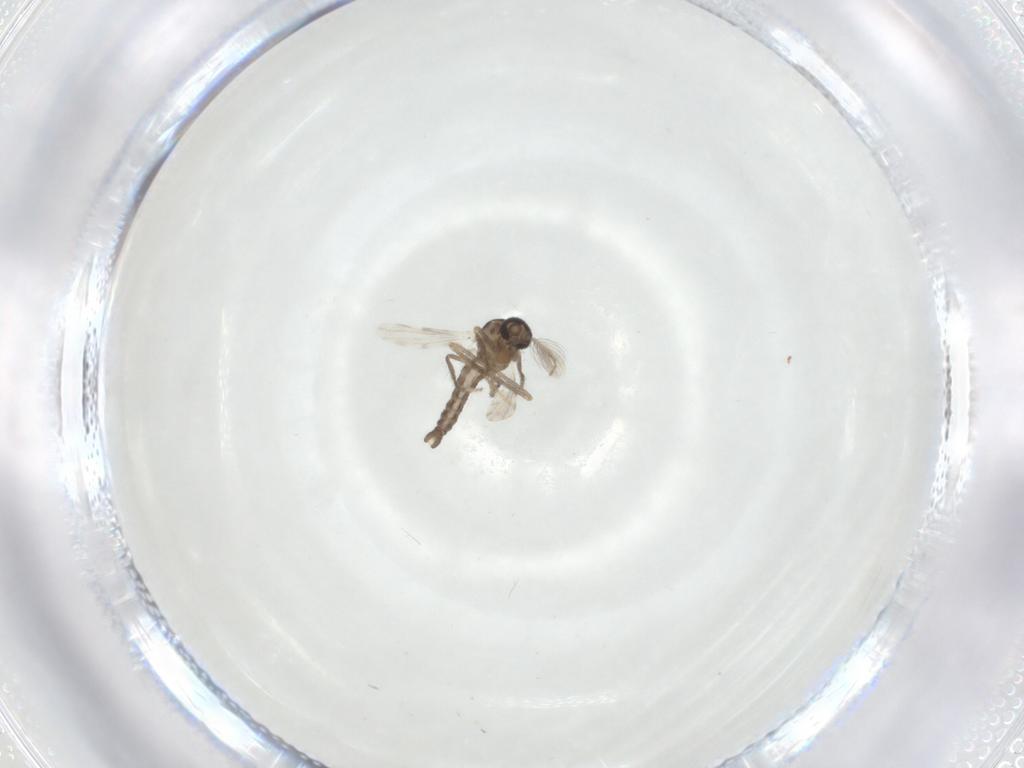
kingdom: Animalia
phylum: Arthropoda
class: Insecta
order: Diptera
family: Ceratopogonidae
